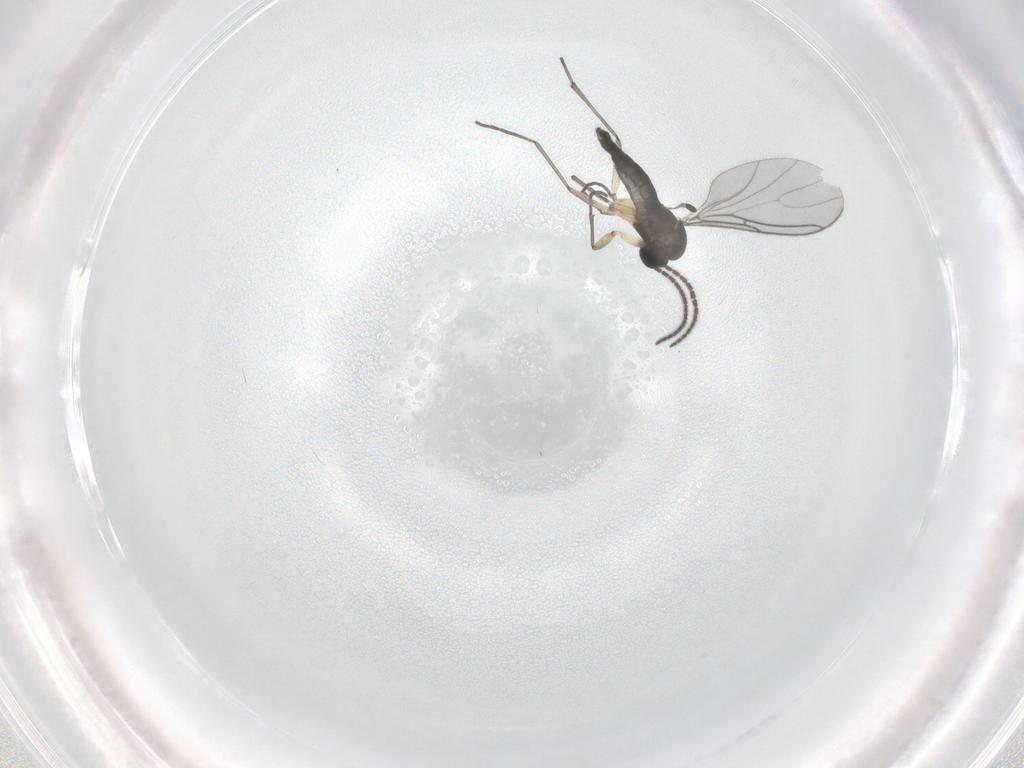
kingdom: Animalia
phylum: Arthropoda
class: Insecta
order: Diptera
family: Sciaridae
